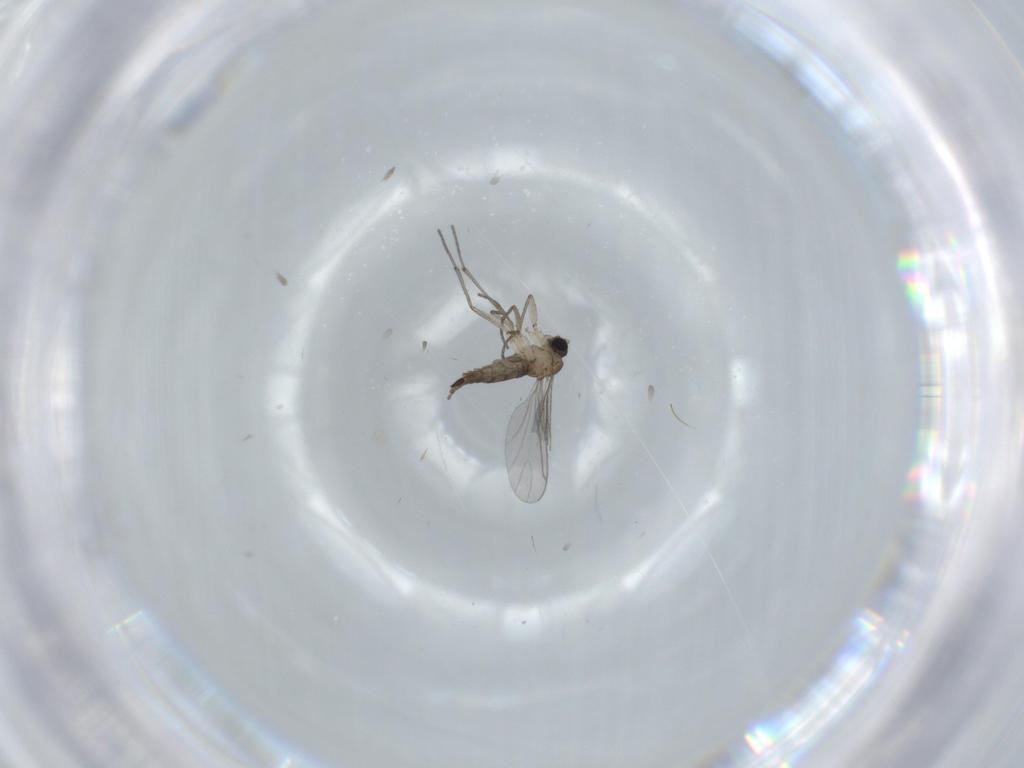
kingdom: Animalia
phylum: Arthropoda
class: Insecta
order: Diptera
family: Sciaridae
